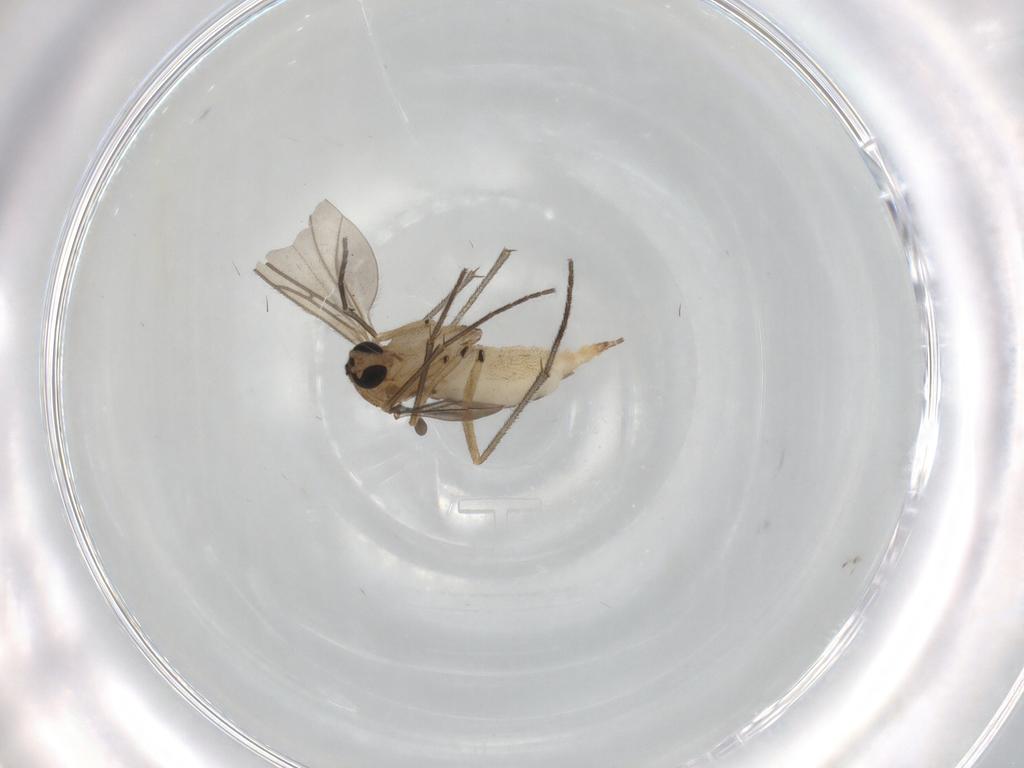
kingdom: Animalia
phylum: Arthropoda
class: Insecta
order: Diptera
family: Sciaridae
